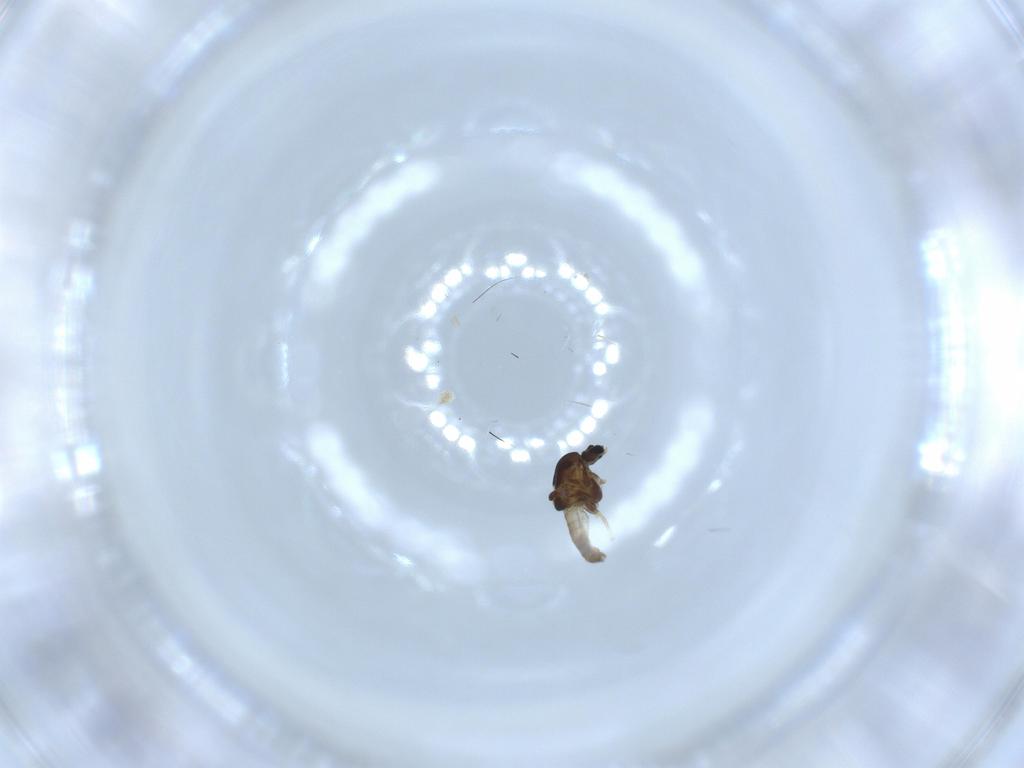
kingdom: Animalia
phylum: Arthropoda
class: Insecta
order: Diptera
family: Chironomidae
